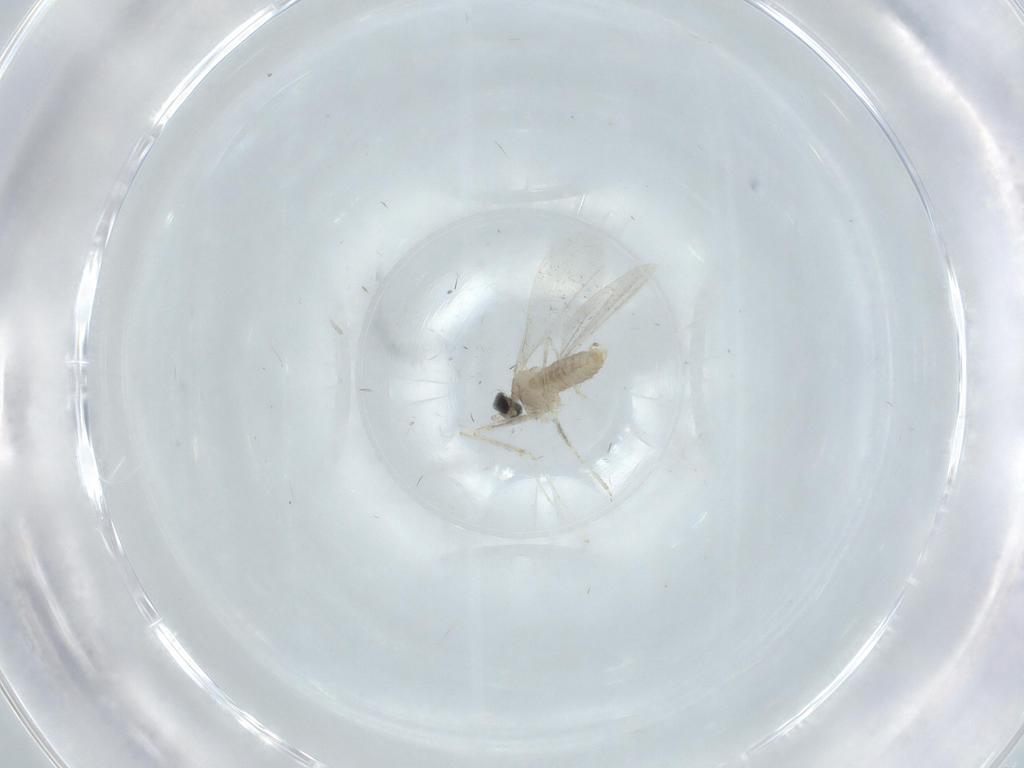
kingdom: Animalia
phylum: Arthropoda
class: Insecta
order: Diptera
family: Cecidomyiidae
